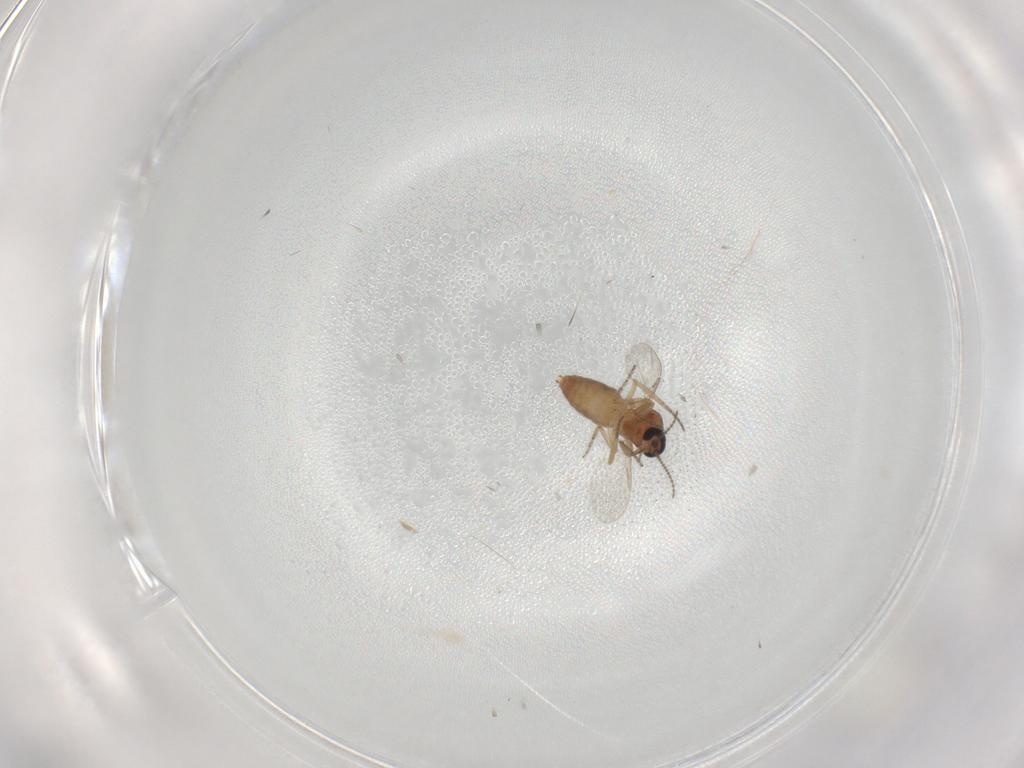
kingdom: Animalia
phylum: Arthropoda
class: Insecta
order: Diptera
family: Ceratopogonidae
